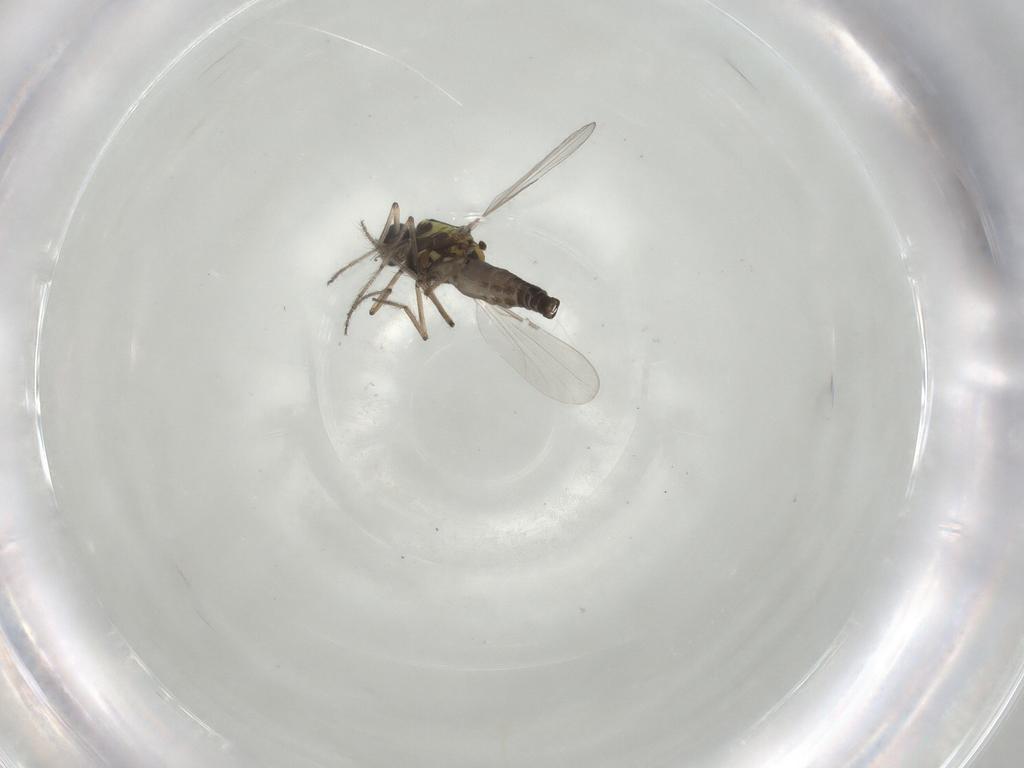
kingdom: Animalia
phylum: Arthropoda
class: Insecta
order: Diptera
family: Ceratopogonidae
